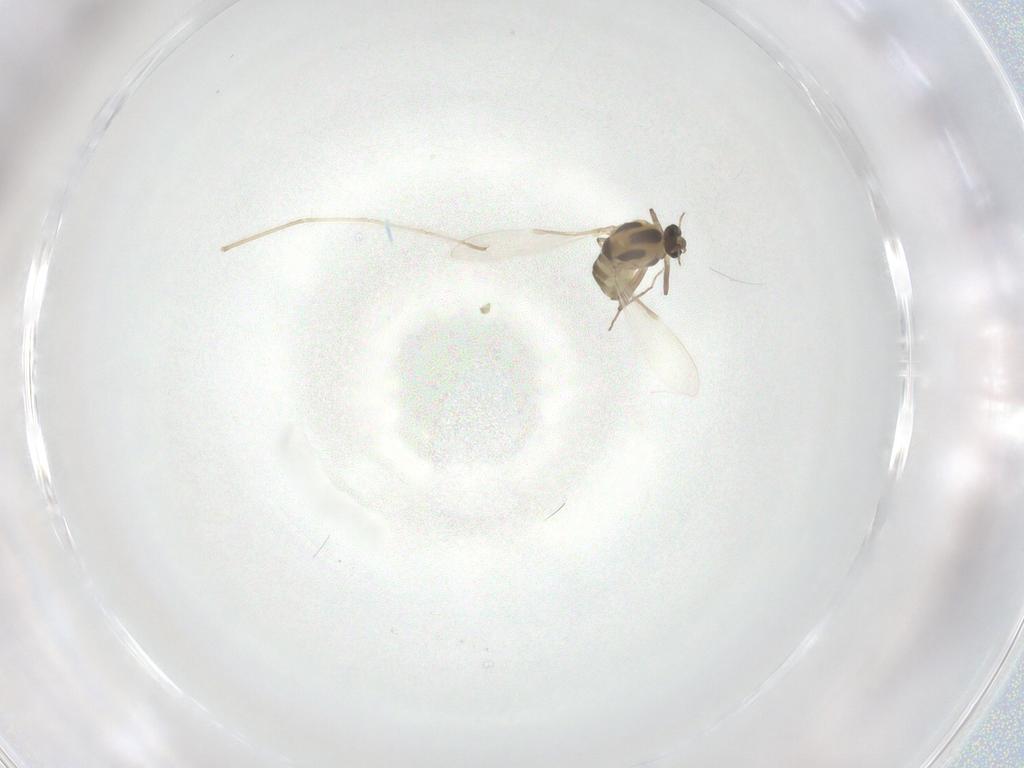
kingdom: Animalia
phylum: Arthropoda
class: Insecta
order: Diptera
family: Chironomidae
